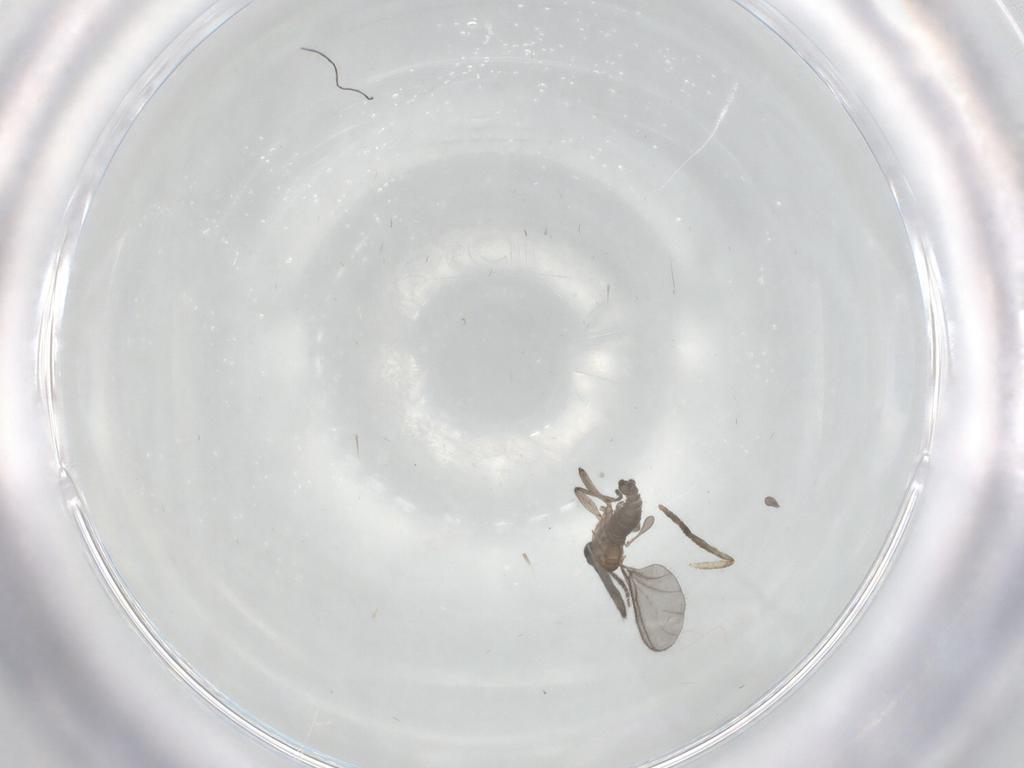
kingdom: Animalia
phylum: Arthropoda
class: Insecta
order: Diptera
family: Sciaridae
